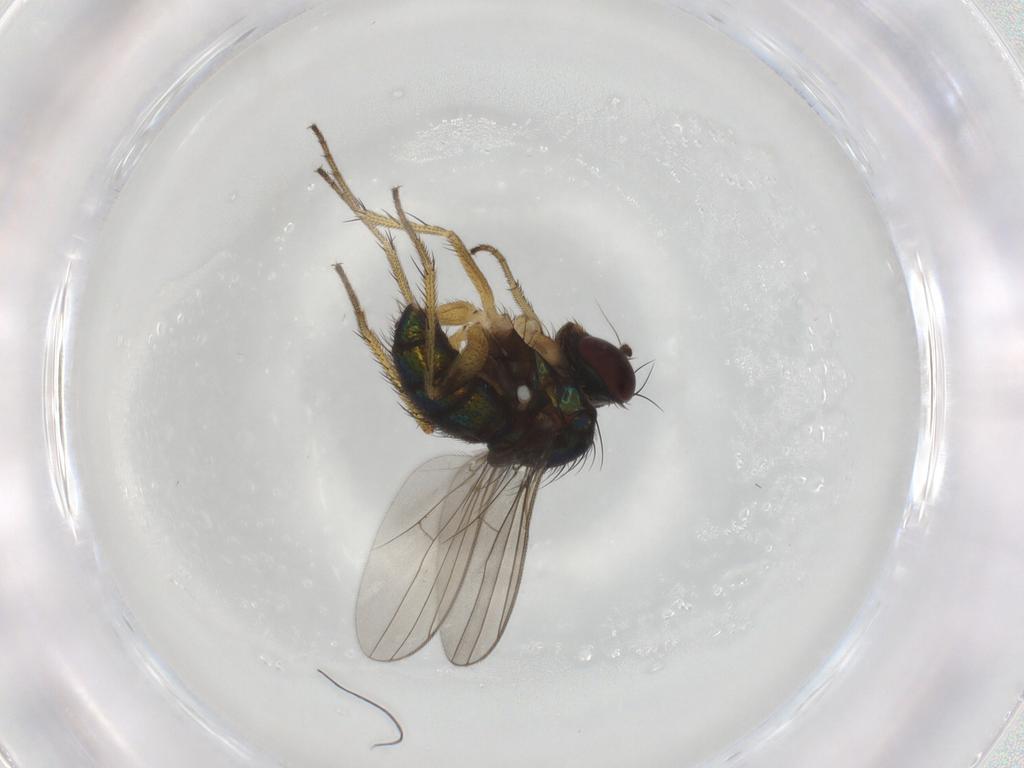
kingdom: Animalia
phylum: Arthropoda
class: Insecta
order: Diptera
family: Dolichopodidae
